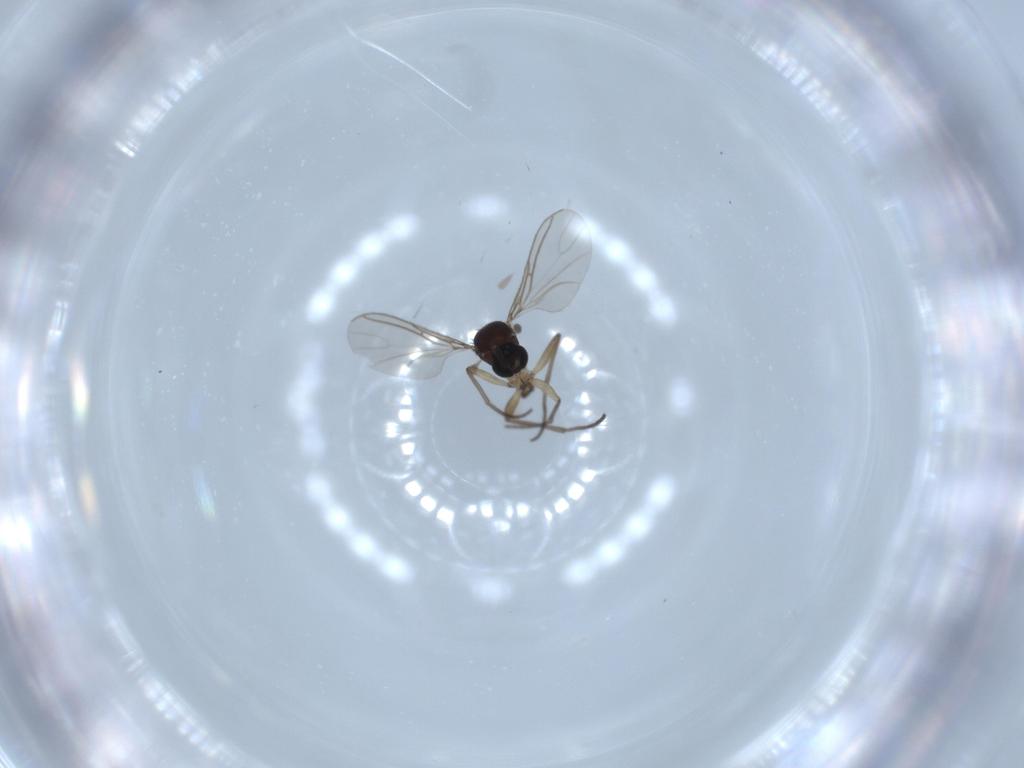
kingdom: Animalia
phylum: Arthropoda
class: Insecta
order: Diptera
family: Sciaridae
